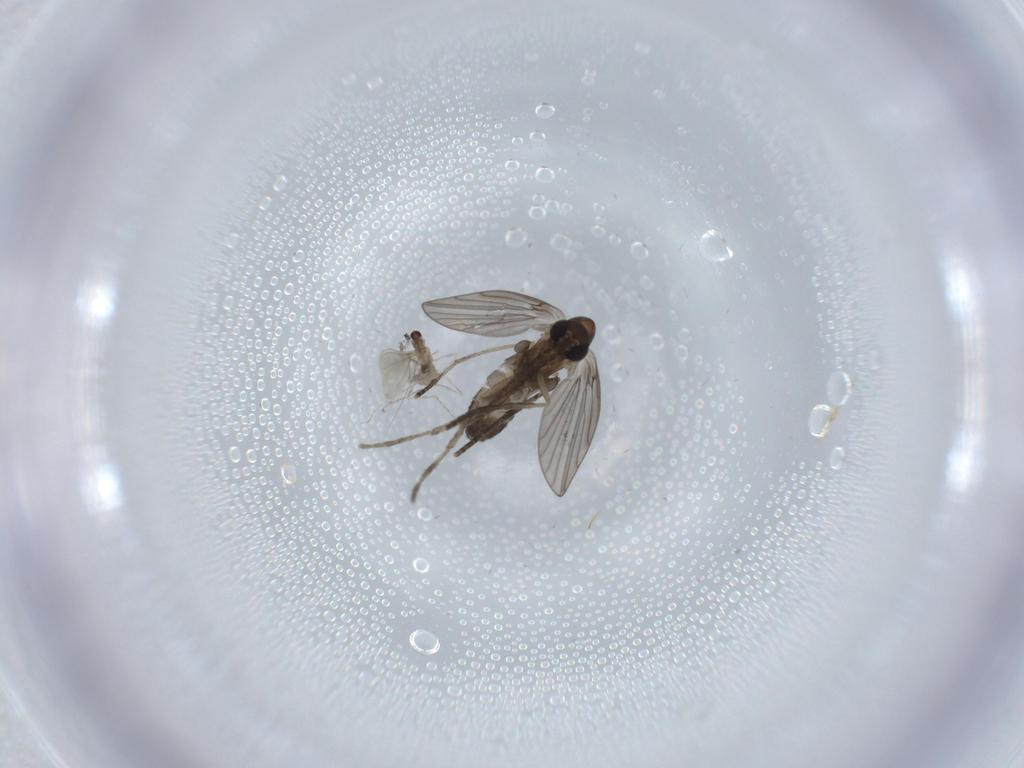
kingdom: Animalia
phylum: Arthropoda
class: Insecta
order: Diptera
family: Psychodidae
